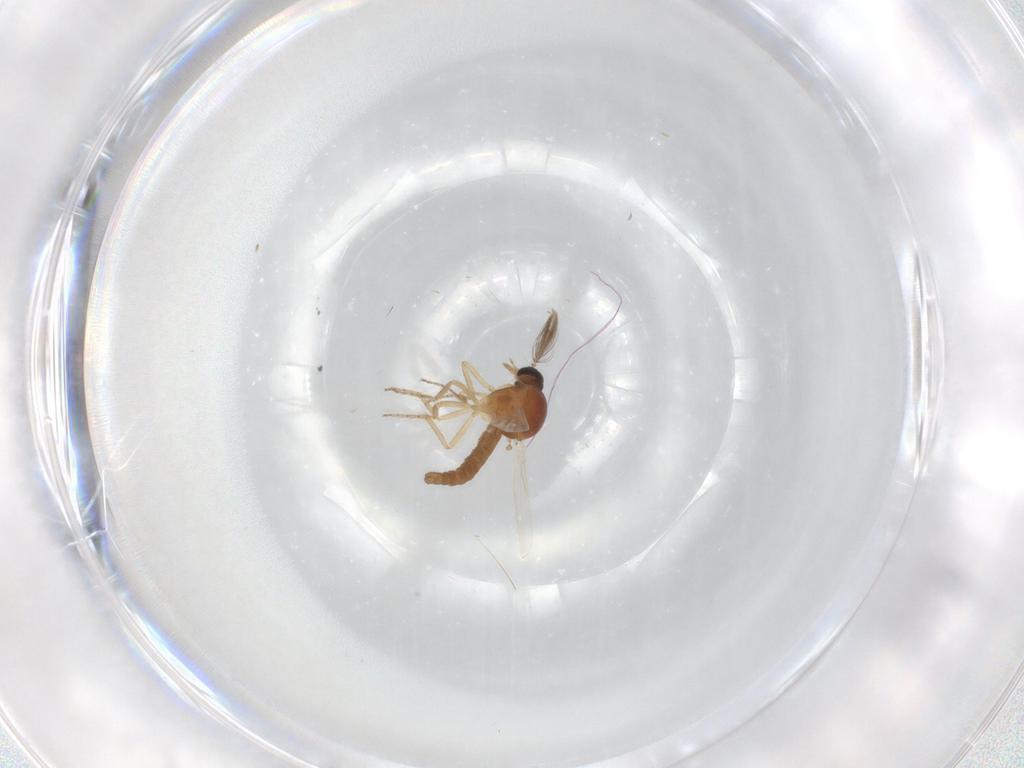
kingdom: Animalia
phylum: Arthropoda
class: Insecta
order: Diptera
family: Ceratopogonidae
